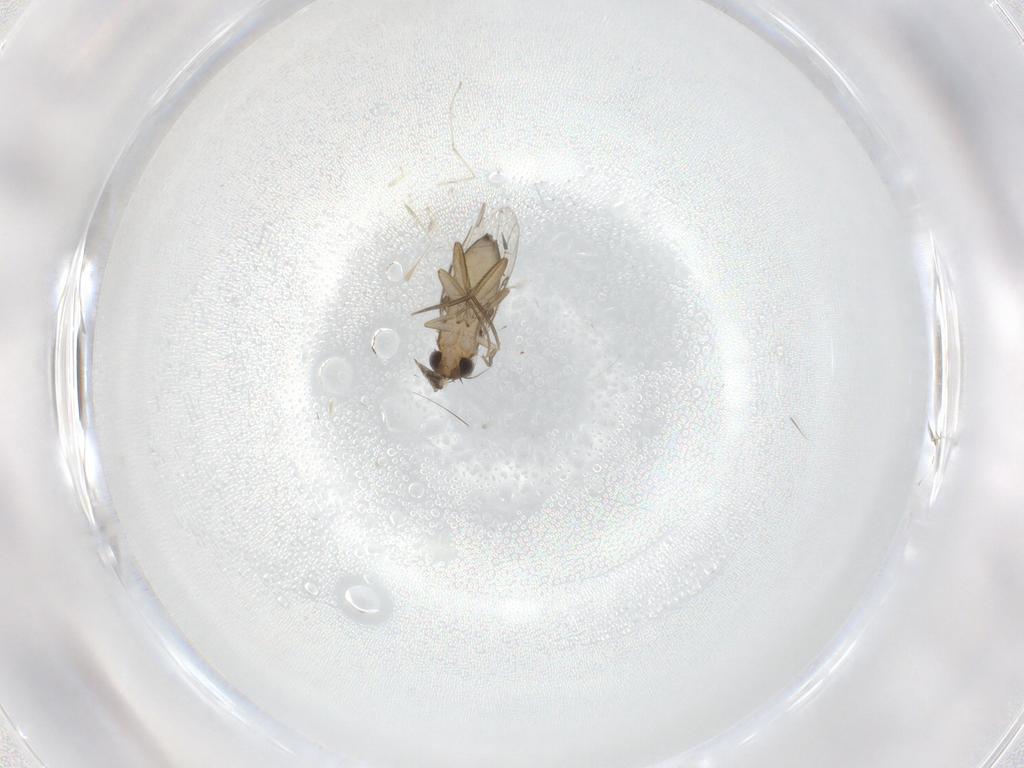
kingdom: Animalia
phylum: Arthropoda
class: Insecta
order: Diptera
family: Phoridae
